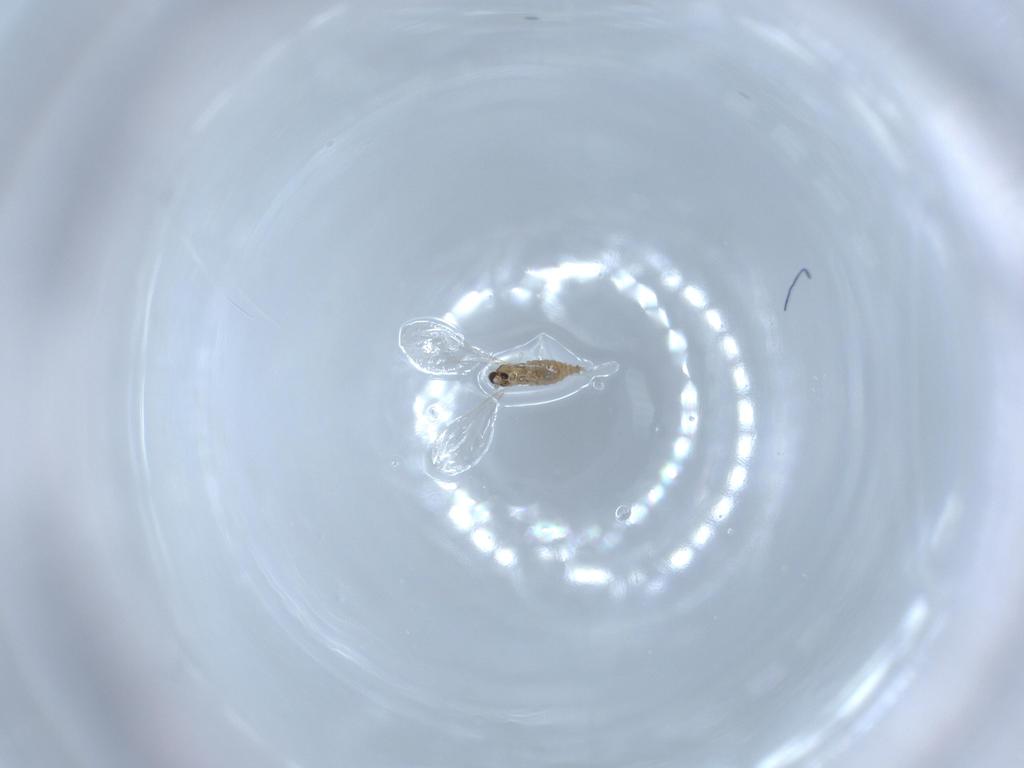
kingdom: Animalia
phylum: Arthropoda
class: Insecta
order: Diptera
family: Cecidomyiidae
